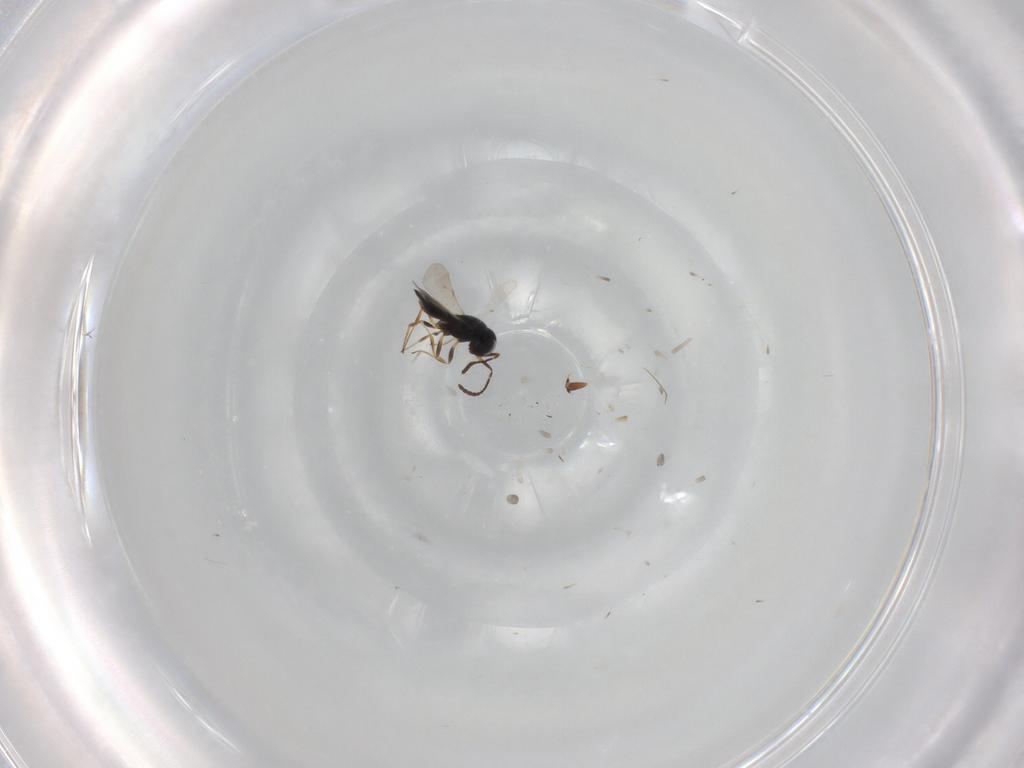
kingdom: Animalia
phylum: Arthropoda
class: Insecta
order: Hymenoptera
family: Scelionidae
